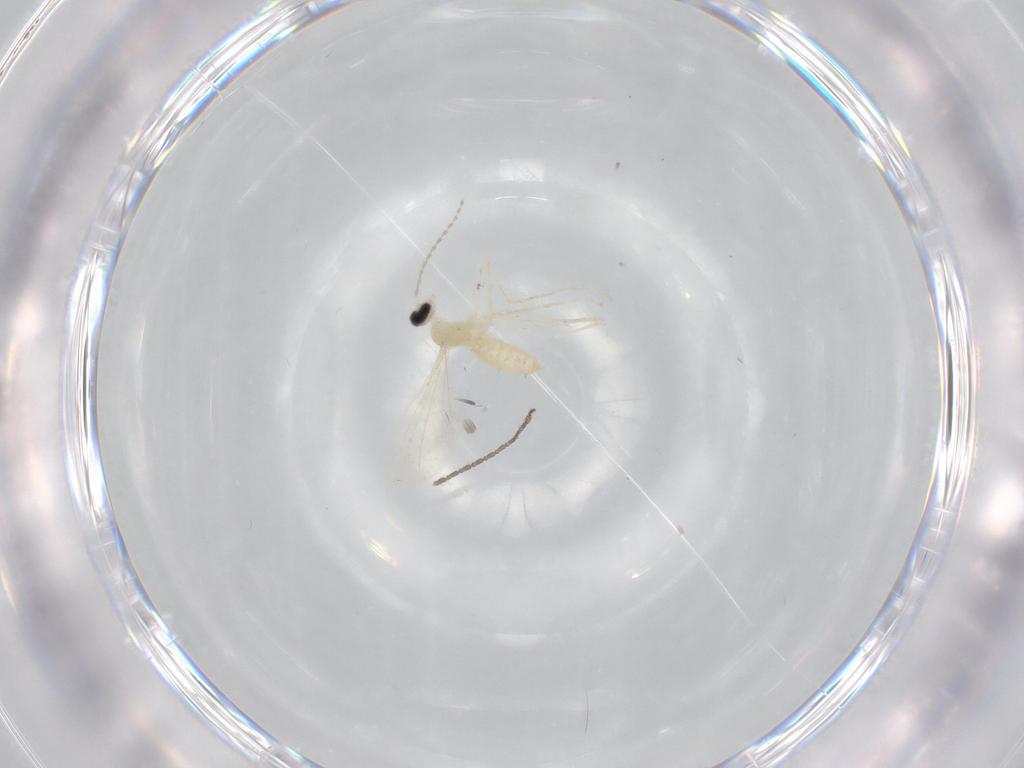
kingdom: Animalia
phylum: Arthropoda
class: Insecta
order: Diptera
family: Cecidomyiidae
